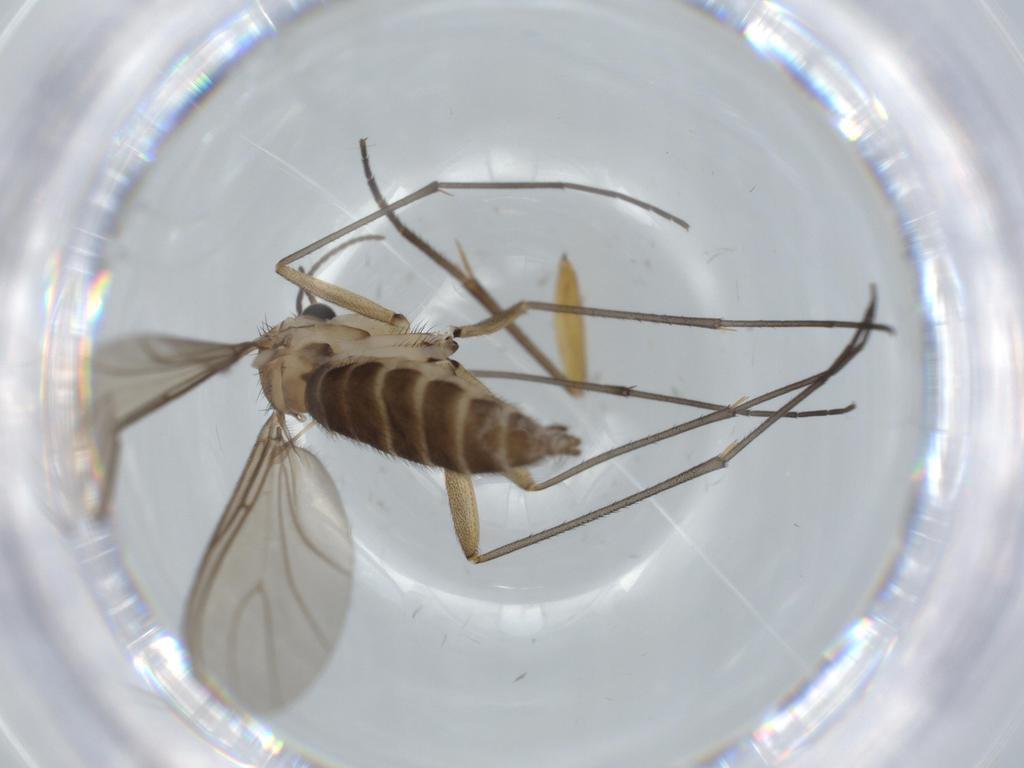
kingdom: Animalia
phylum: Arthropoda
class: Insecta
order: Diptera
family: Sciaridae
